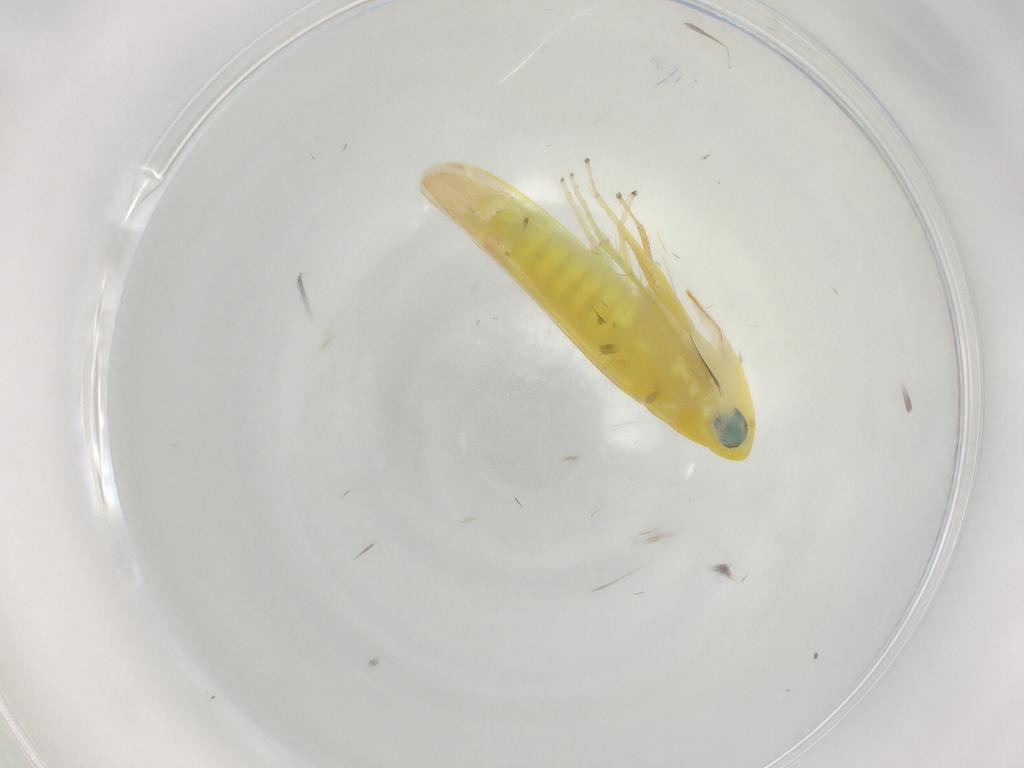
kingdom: Animalia
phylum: Arthropoda
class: Insecta
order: Hemiptera
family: Cicadellidae
